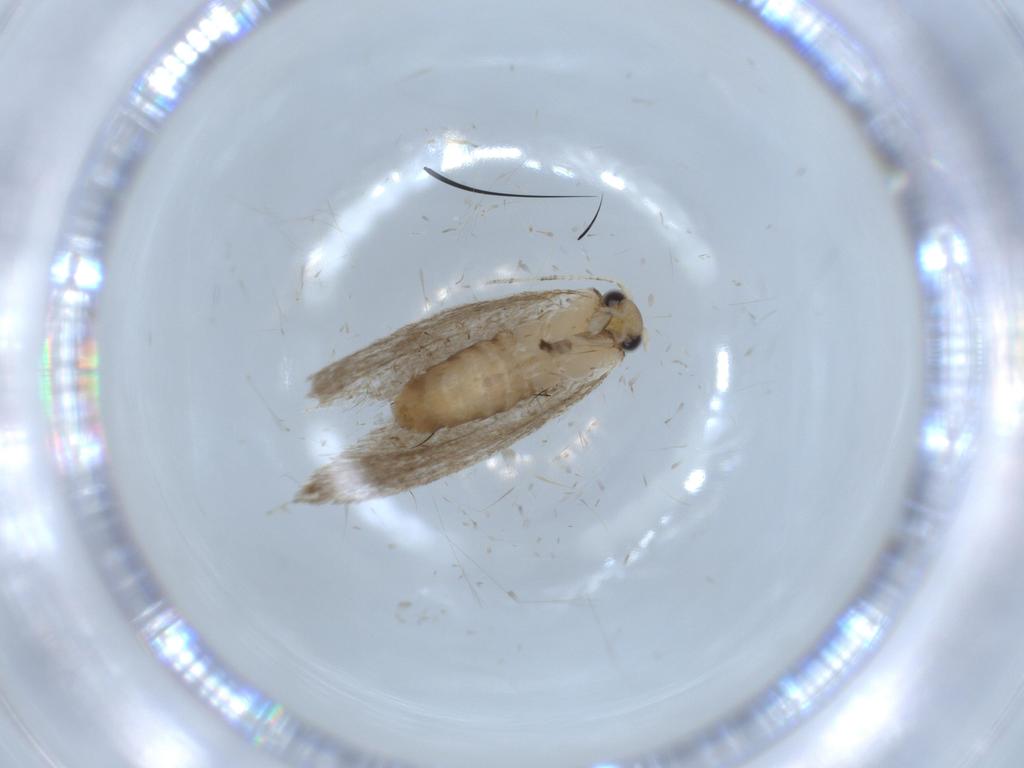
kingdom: Animalia
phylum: Arthropoda
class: Insecta
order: Lepidoptera
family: Tineidae
